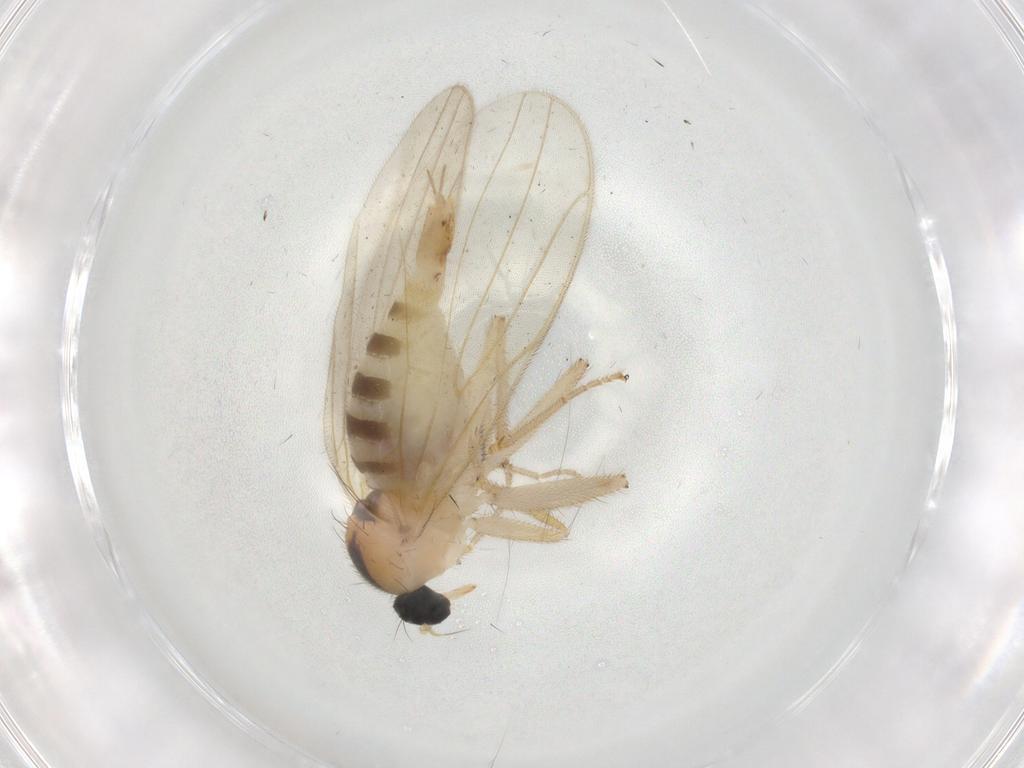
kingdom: Animalia
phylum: Arthropoda
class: Insecta
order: Diptera
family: Hybotidae
